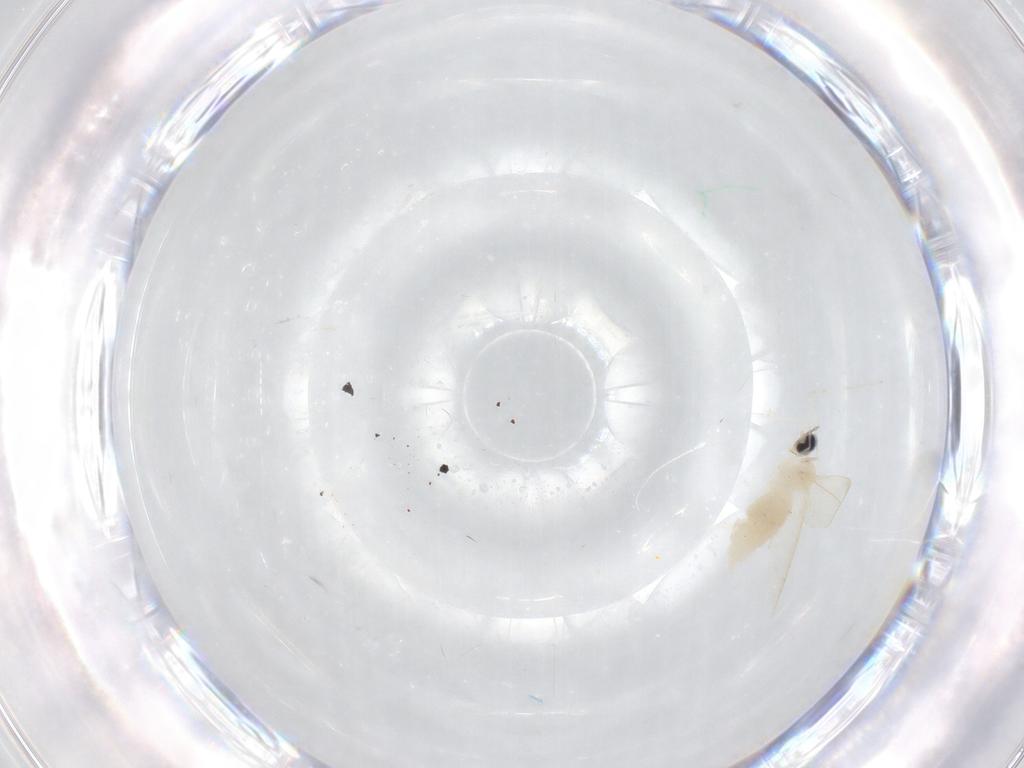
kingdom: Animalia
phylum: Arthropoda
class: Insecta
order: Diptera
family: Cecidomyiidae
